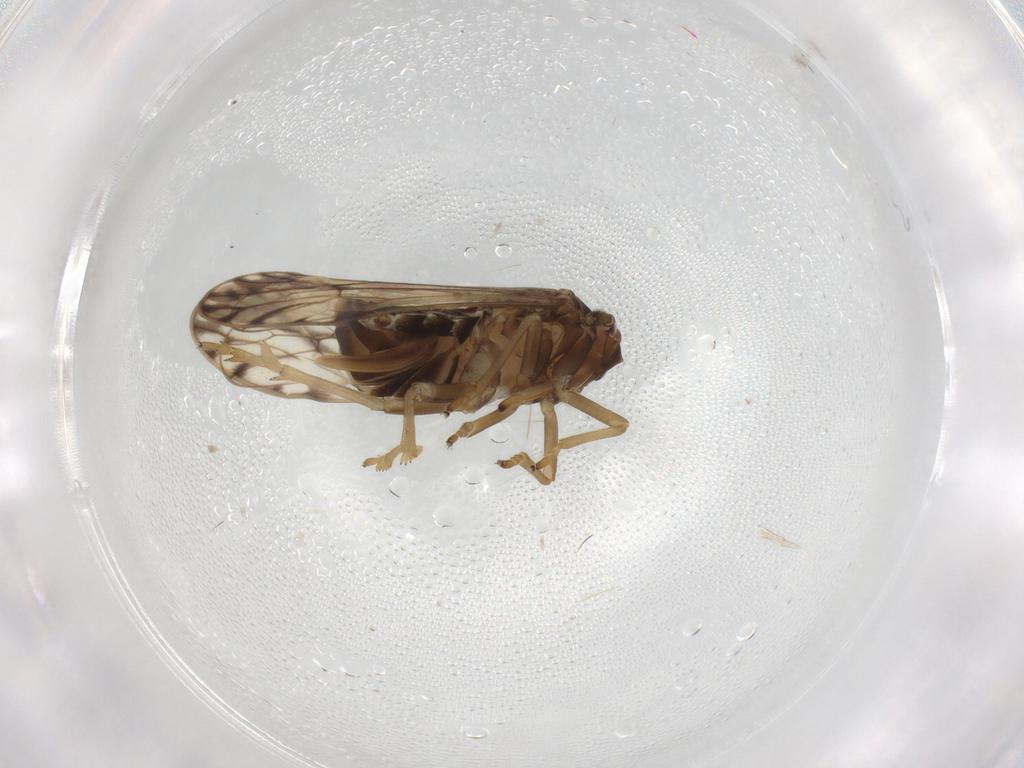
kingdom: Animalia
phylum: Arthropoda
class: Insecta
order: Hemiptera
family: Delphacidae
